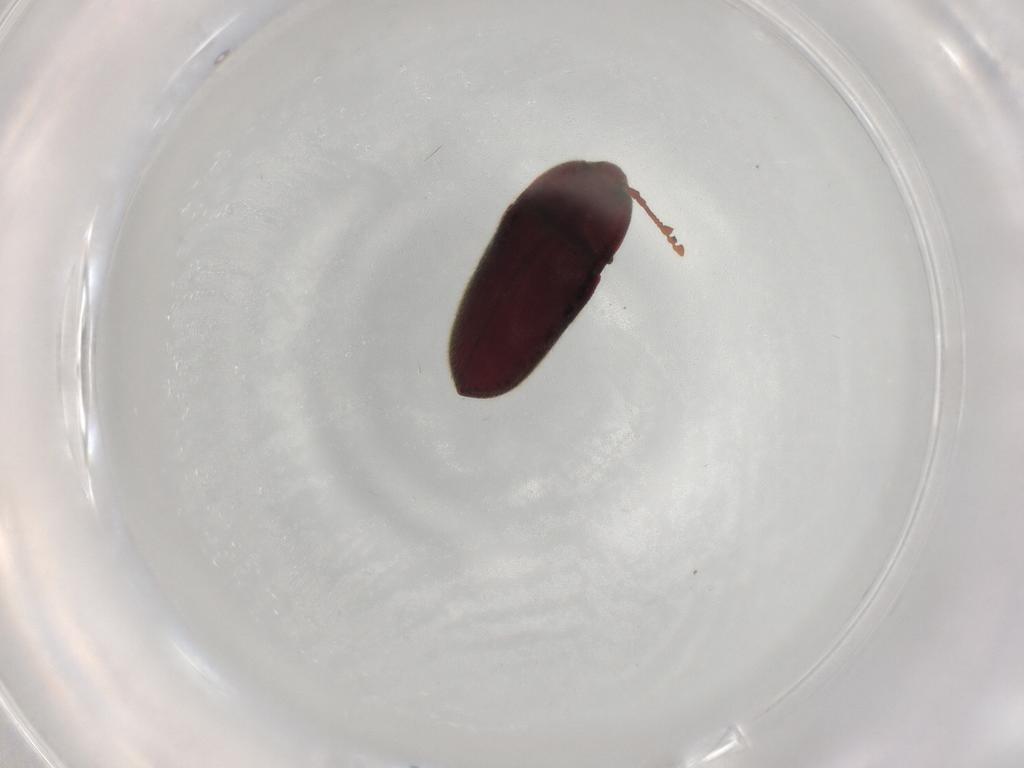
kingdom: Animalia
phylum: Arthropoda
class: Insecta
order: Coleoptera
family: Throscidae
